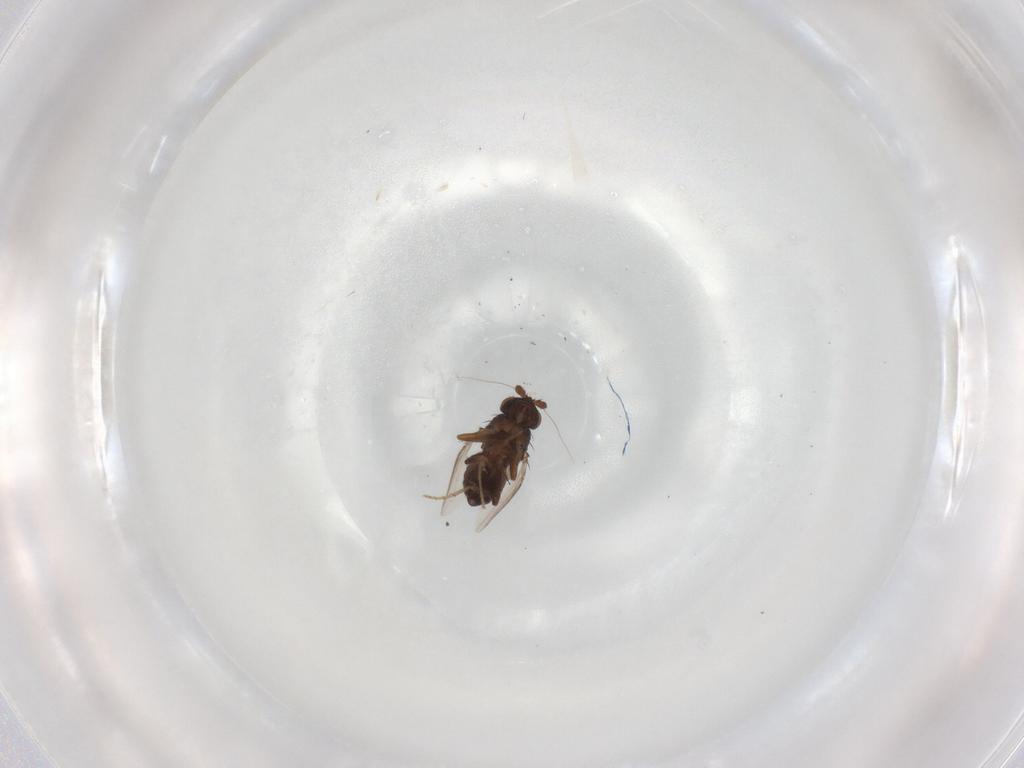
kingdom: Animalia
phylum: Arthropoda
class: Insecta
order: Diptera
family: Sphaeroceridae
